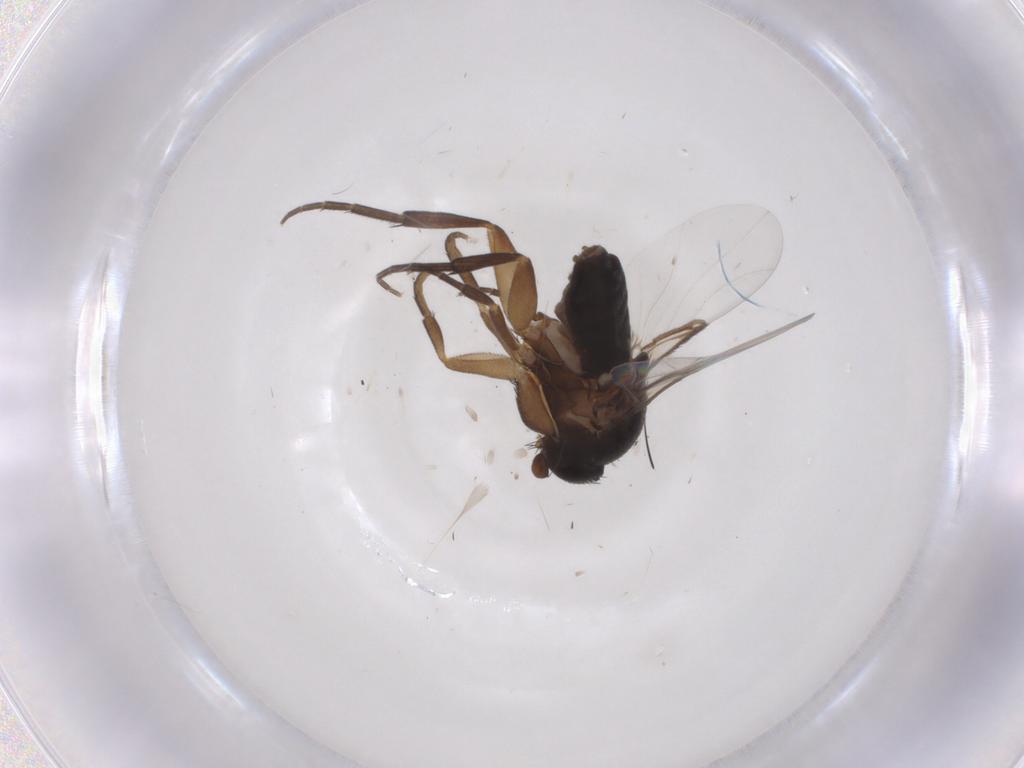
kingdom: Animalia
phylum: Arthropoda
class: Insecta
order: Diptera
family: Phoridae
